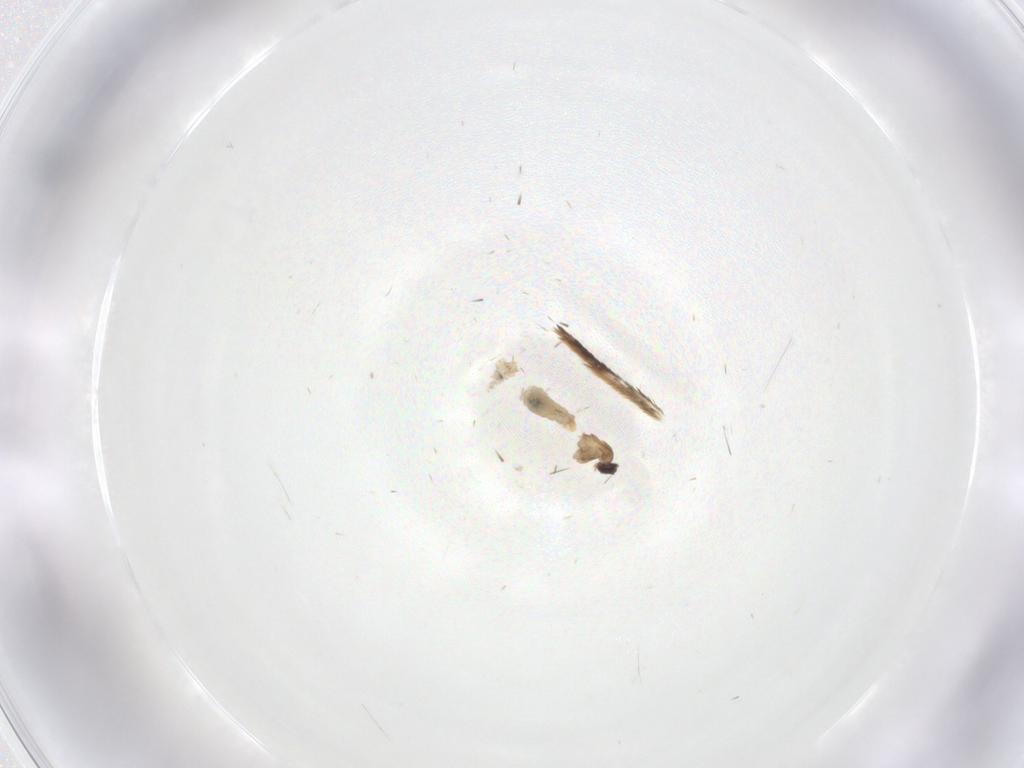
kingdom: Animalia
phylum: Arthropoda
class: Insecta
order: Diptera
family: Cecidomyiidae
